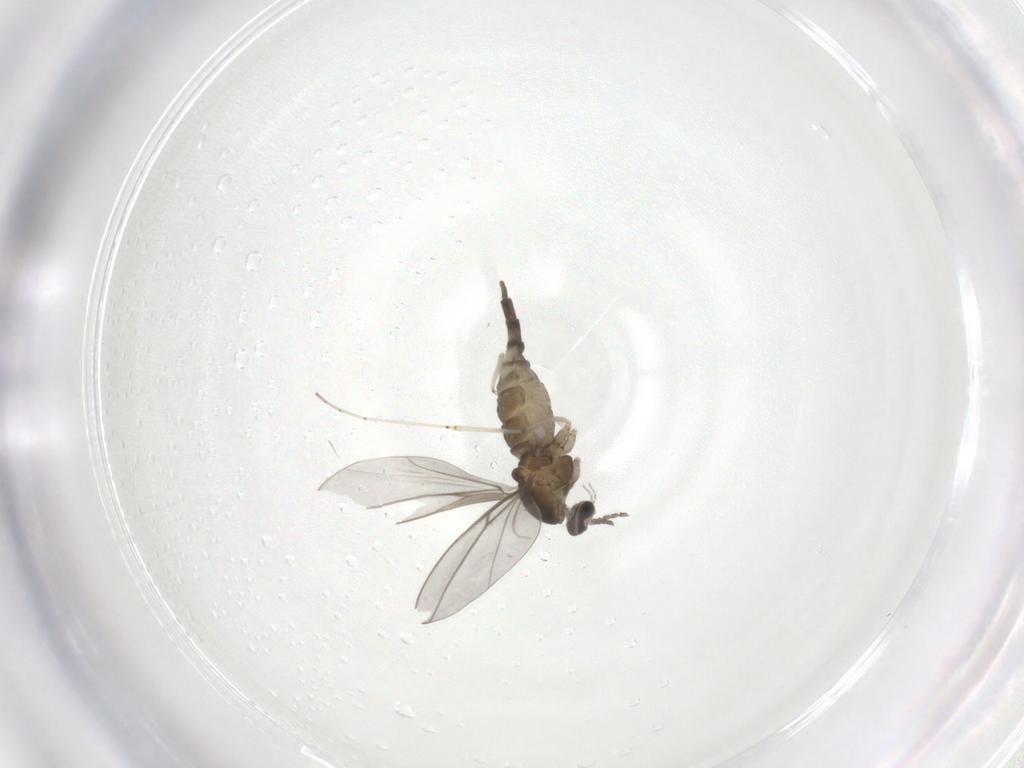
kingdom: Animalia
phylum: Arthropoda
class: Insecta
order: Diptera
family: Cecidomyiidae
